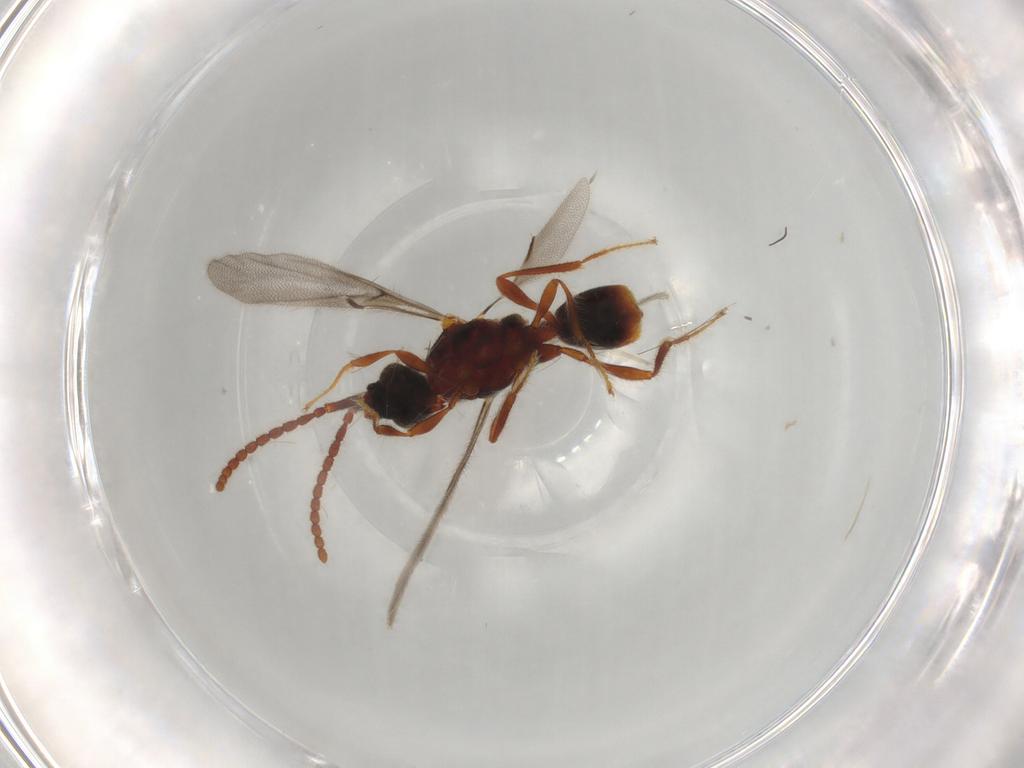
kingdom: Animalia
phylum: Arthropoda
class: Insecta
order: Hymenoptera
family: Diapriidae
